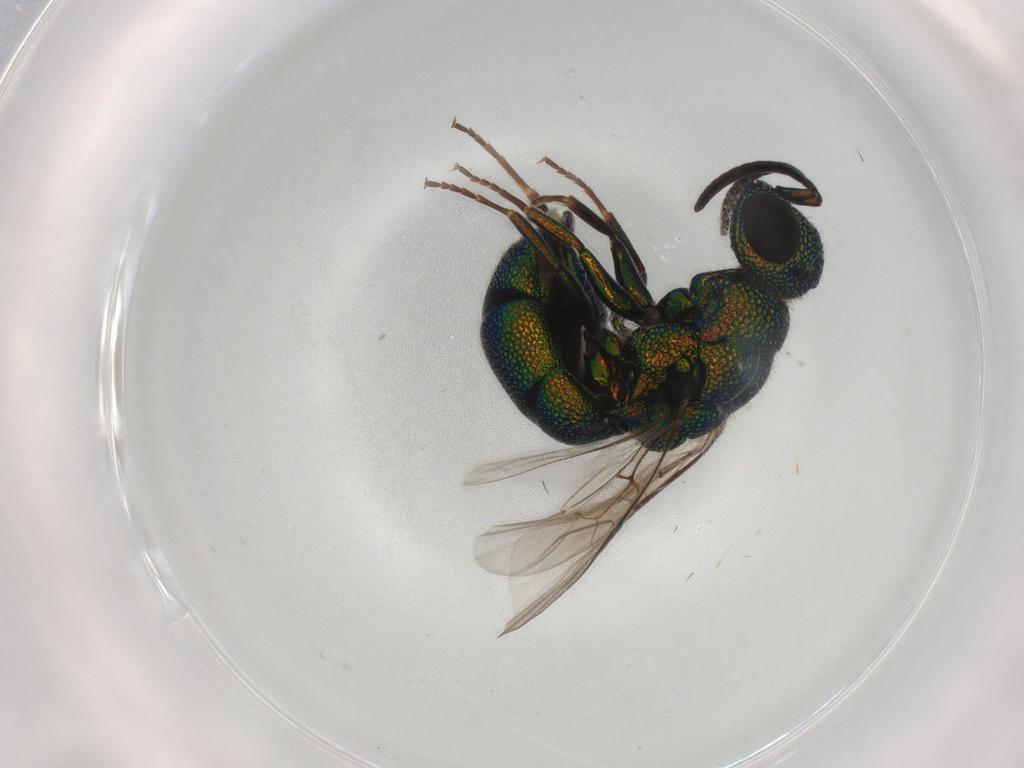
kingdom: Animalia
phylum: Arthropoda
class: Insecta
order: Hymenoptera
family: Chrysididae
